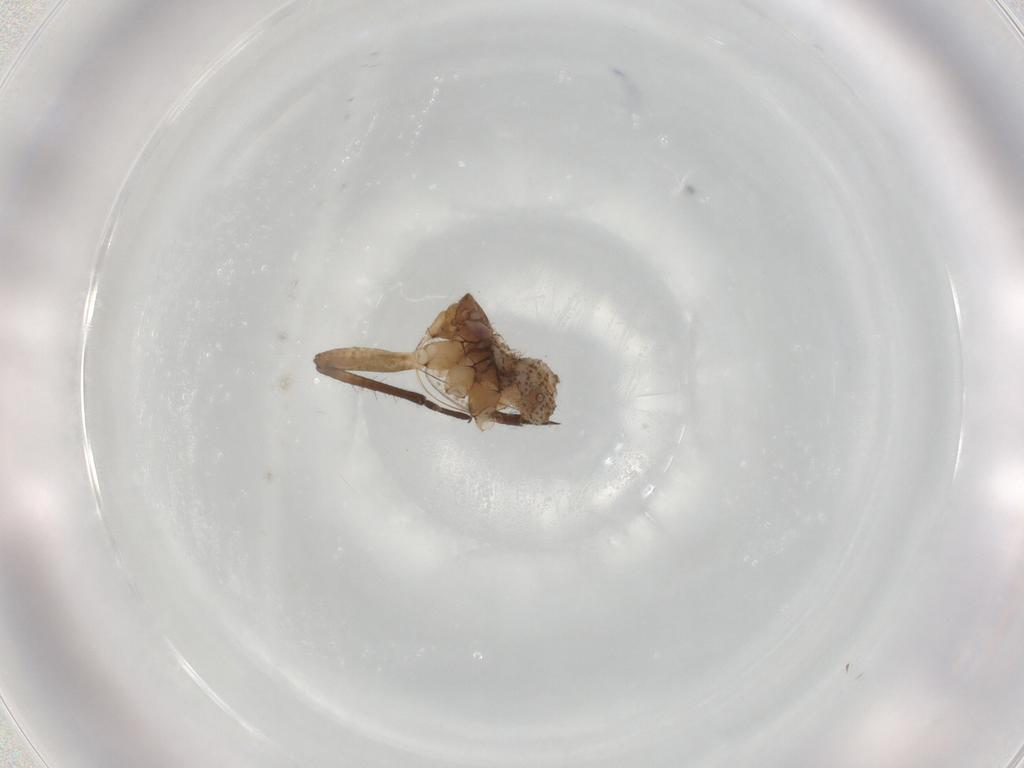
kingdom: Animalia
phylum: Arthropoda
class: Insecta
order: Hemiptera
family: Aphididae
